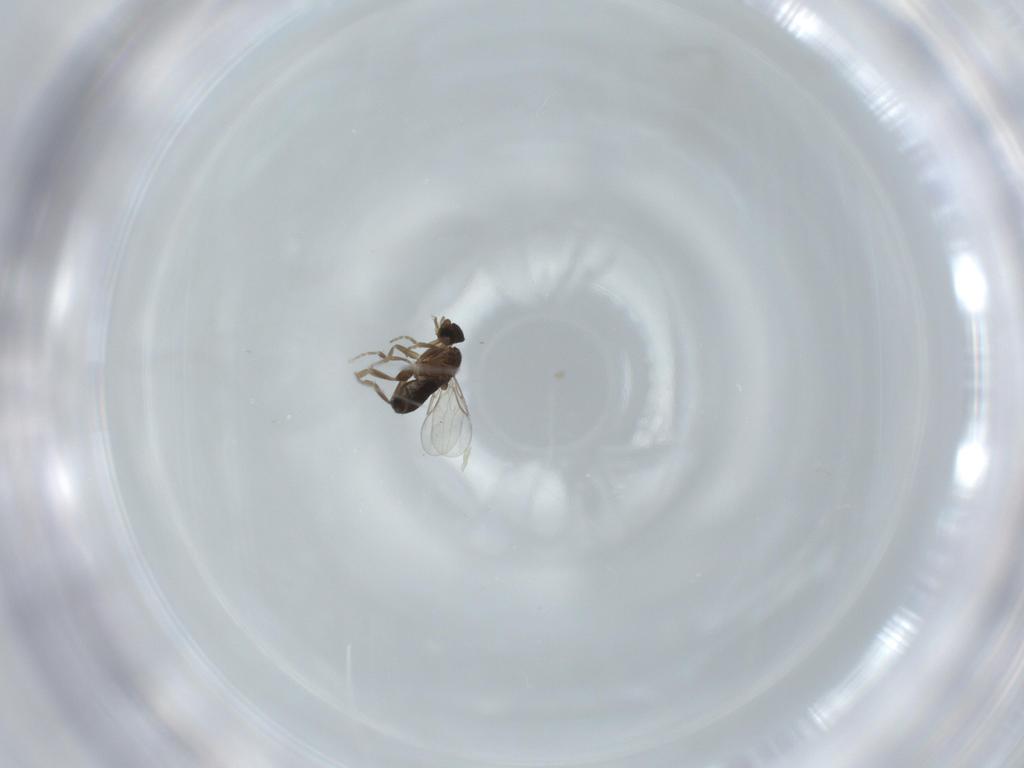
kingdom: Animalia
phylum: Arthropoda
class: Insecta
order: Diptera
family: Phoridae
